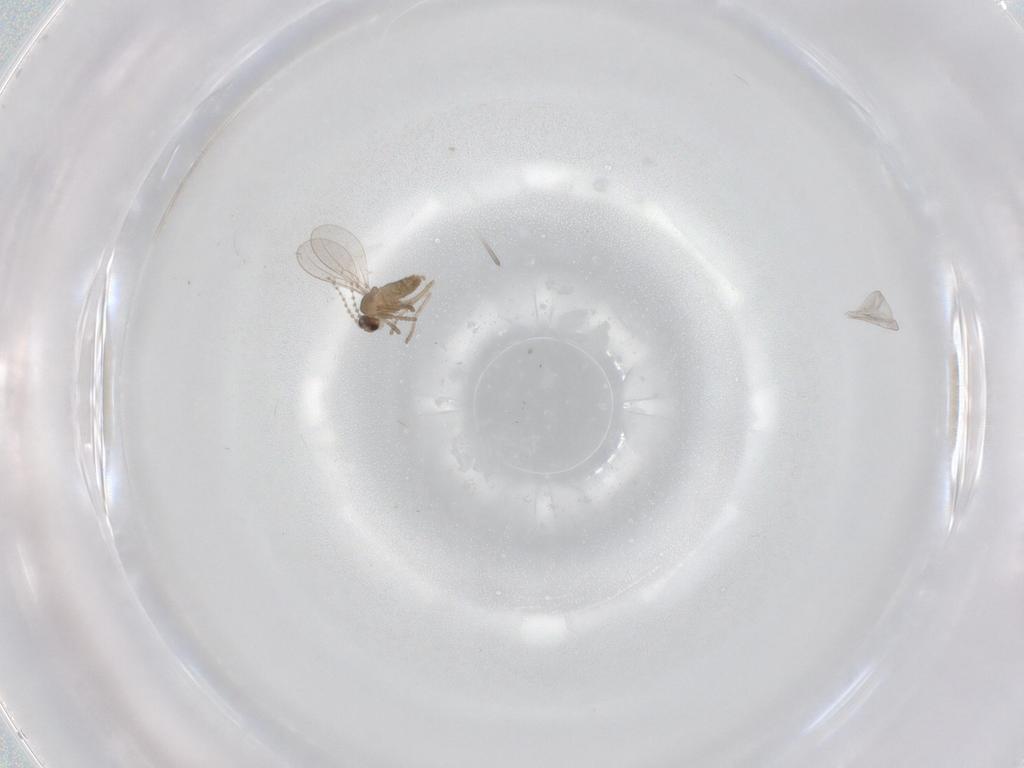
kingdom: Animalia
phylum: Arthropoda
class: Insecta
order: Diptera
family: Cecidomyiidae
